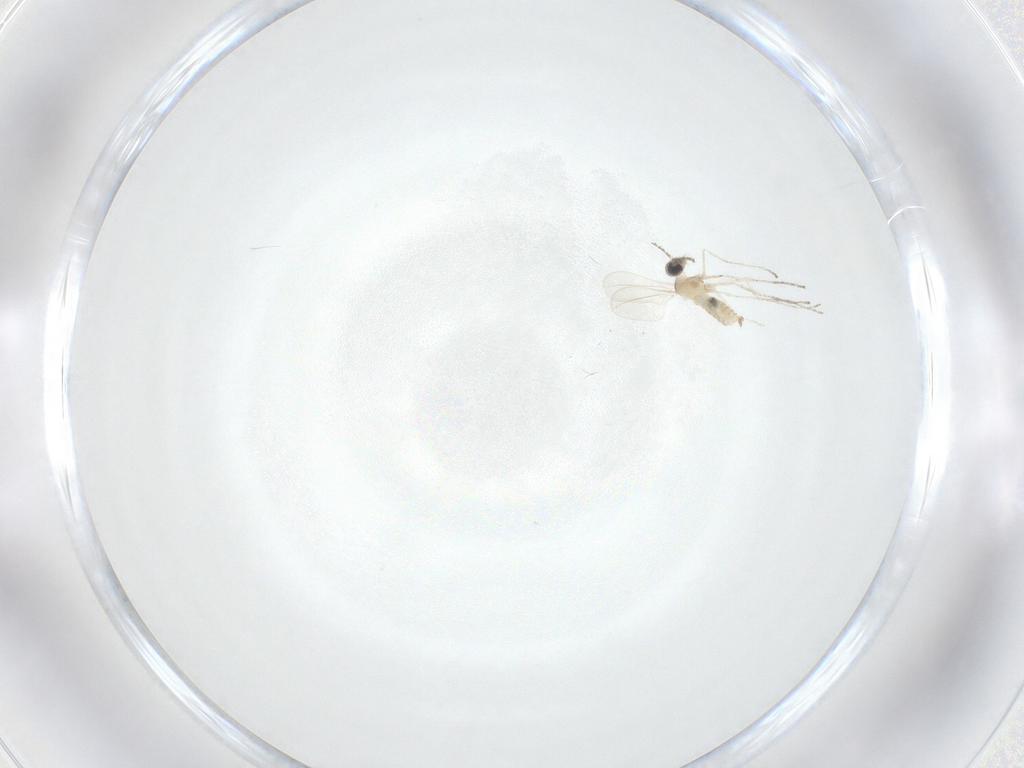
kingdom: Animalia
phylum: Arthropoda
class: Insecta
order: Diptera
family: Cecidomyiidae
